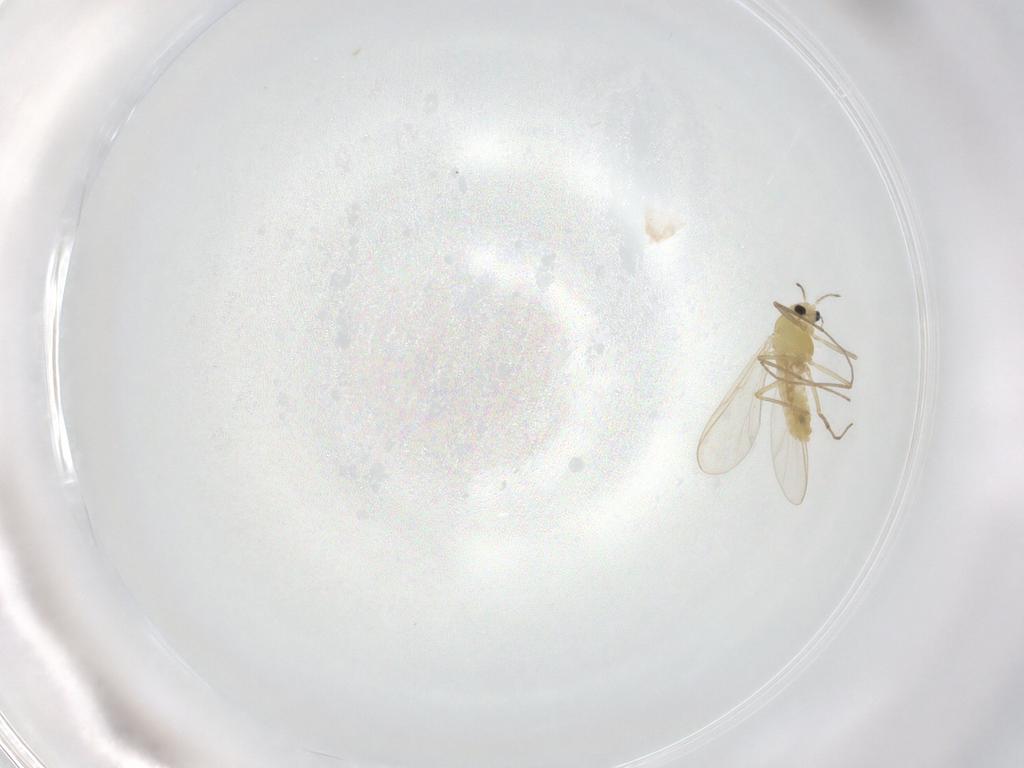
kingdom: Animalia
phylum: Arthropoda
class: Insecta
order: Diptera
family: Chironomidae
